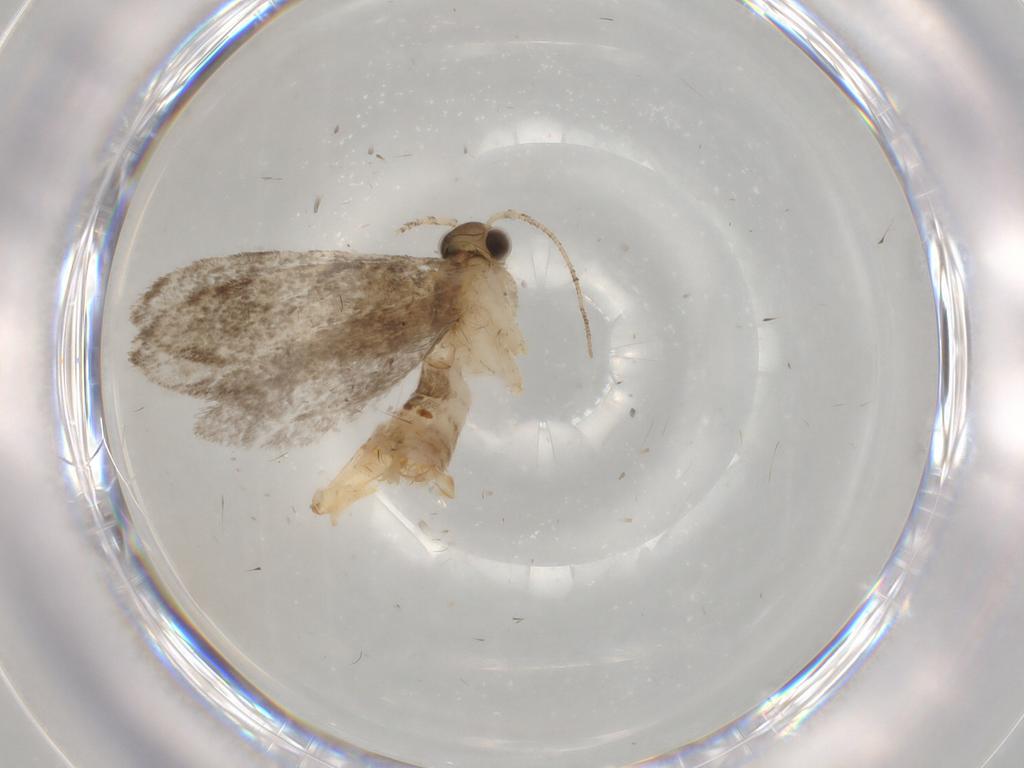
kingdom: Animalia
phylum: Arthropoda
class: Insecta
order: Lepidoptera
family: Tineidae
